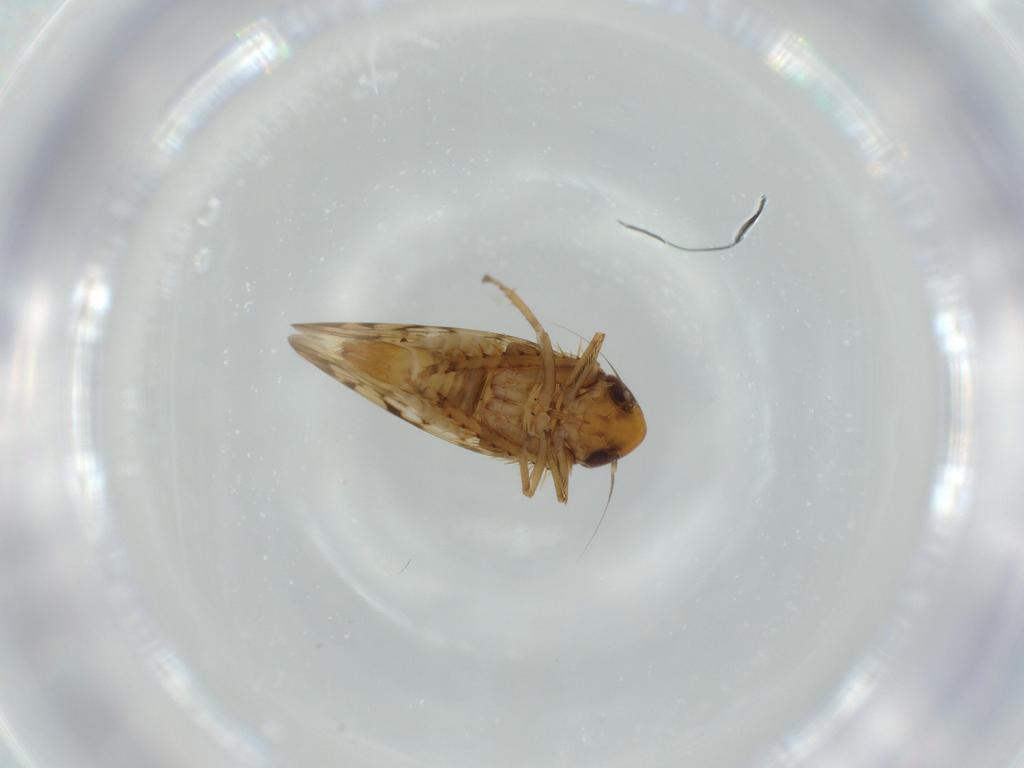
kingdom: Animalia
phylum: Arthropoda
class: Insecta
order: Hemiptera
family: Cicadellidae
